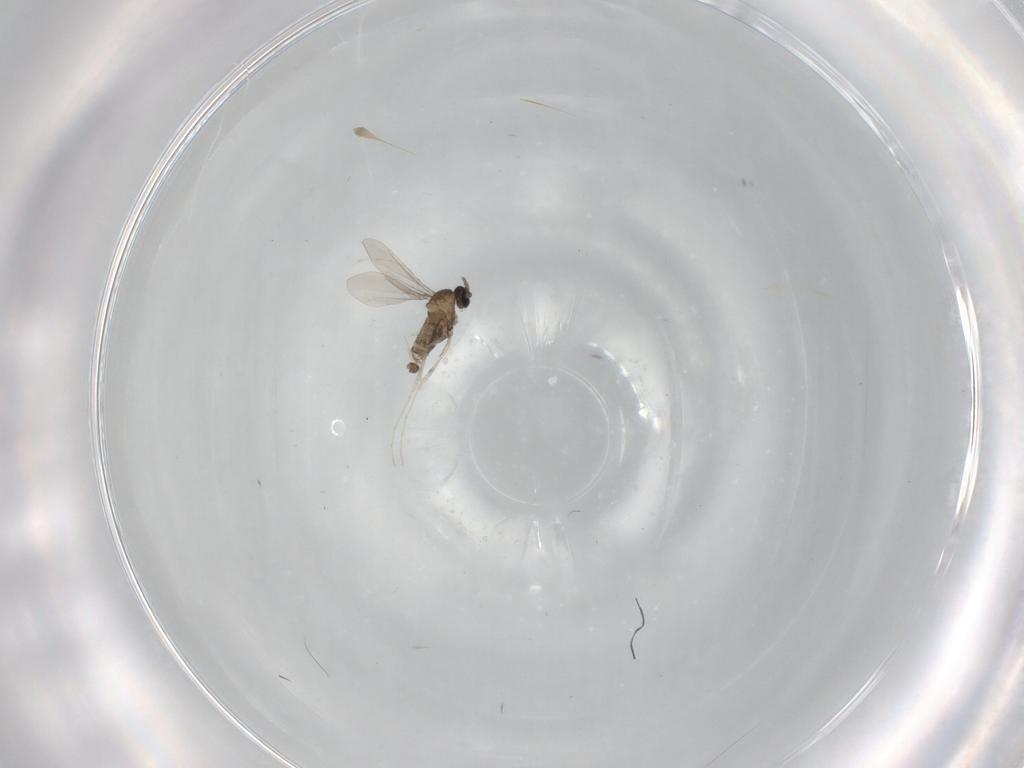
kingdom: Animalia
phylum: Arthropoda
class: Insecta
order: Diptera
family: Cecidomyiidae
